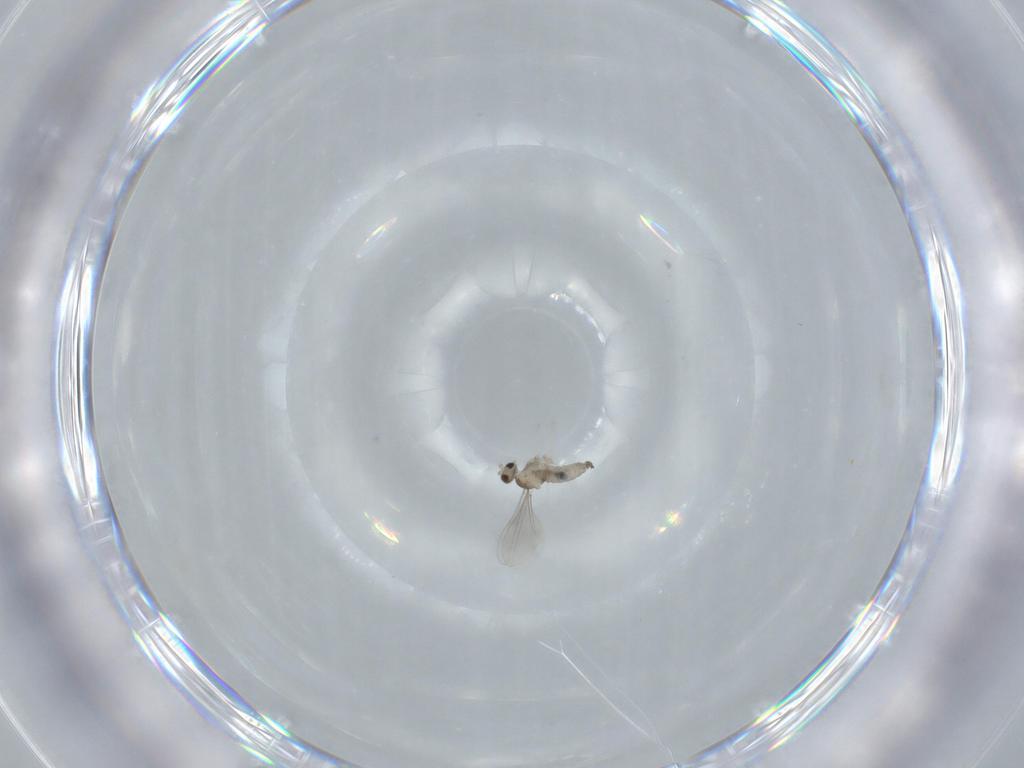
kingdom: Animalia
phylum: Arthropoda
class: Insecta
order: Diptera
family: Cecidomyiidae
